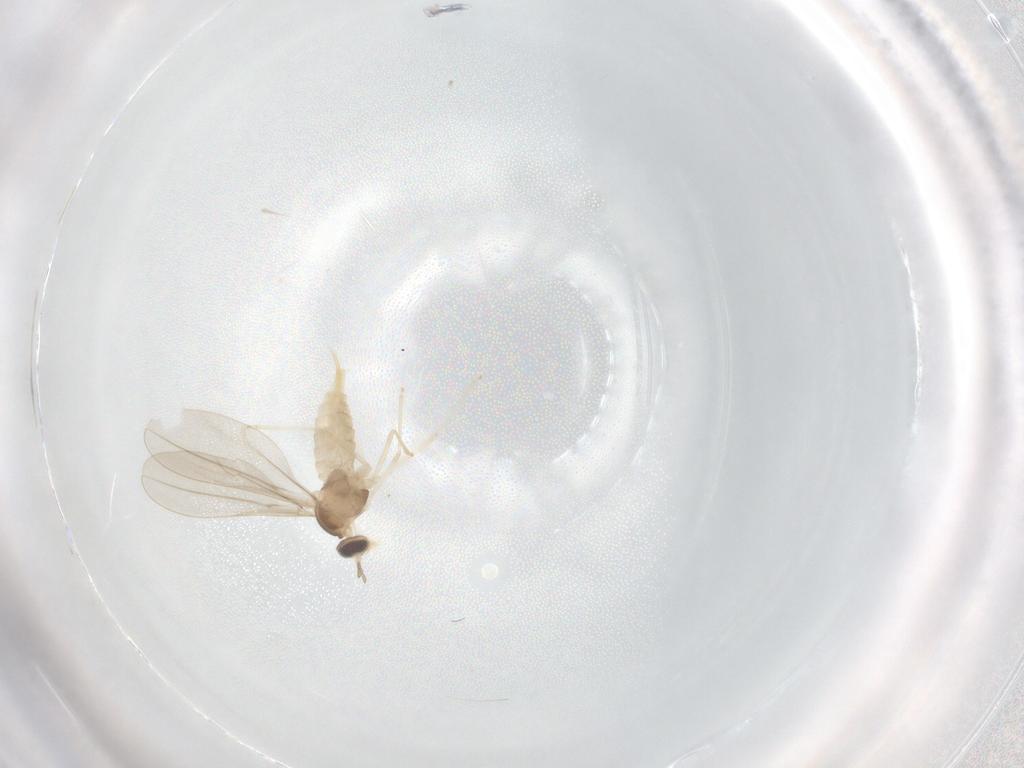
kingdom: Animalia
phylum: Arthropoda
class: Insecta
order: Diptera
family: Cecidomyiidae
